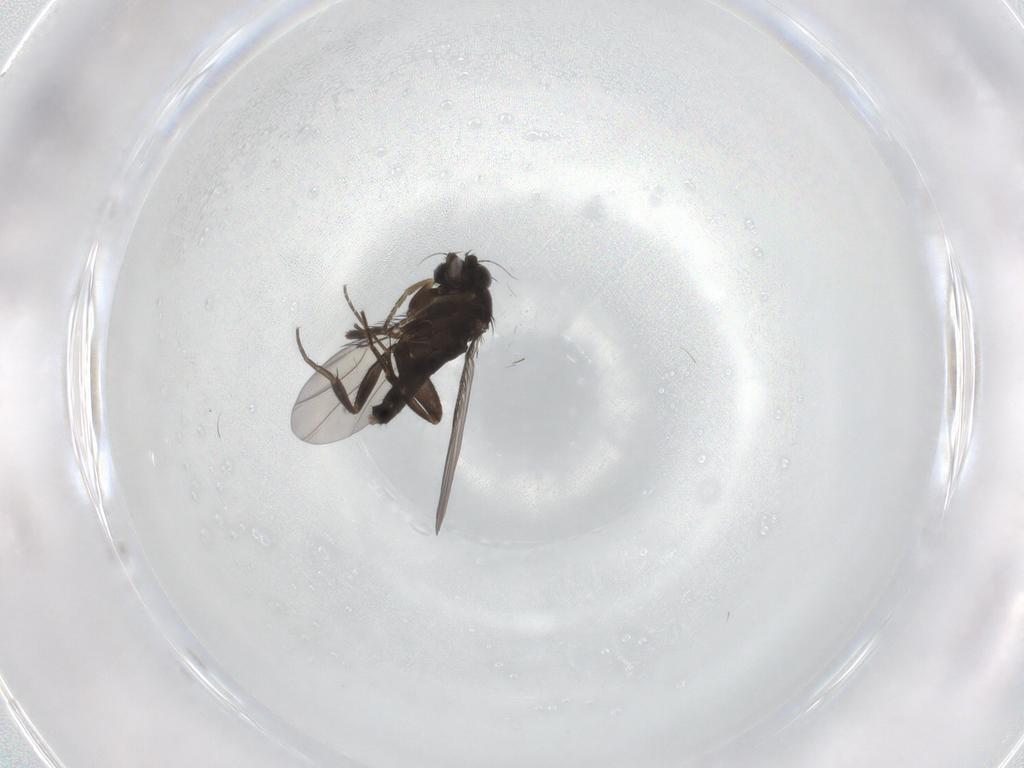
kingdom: Animalia
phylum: Arthropoda
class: Insecta
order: Diptera
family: Phoridae
